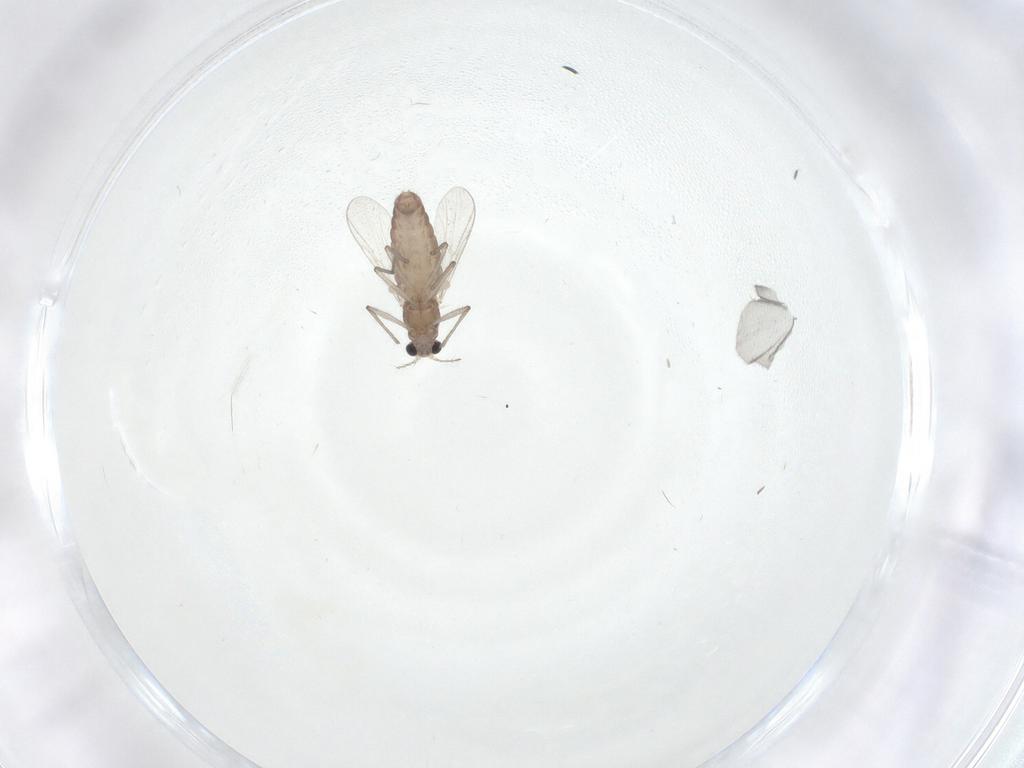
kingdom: Animalia
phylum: Arthropoda
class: Insecta
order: Diptera
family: Chironomidae
